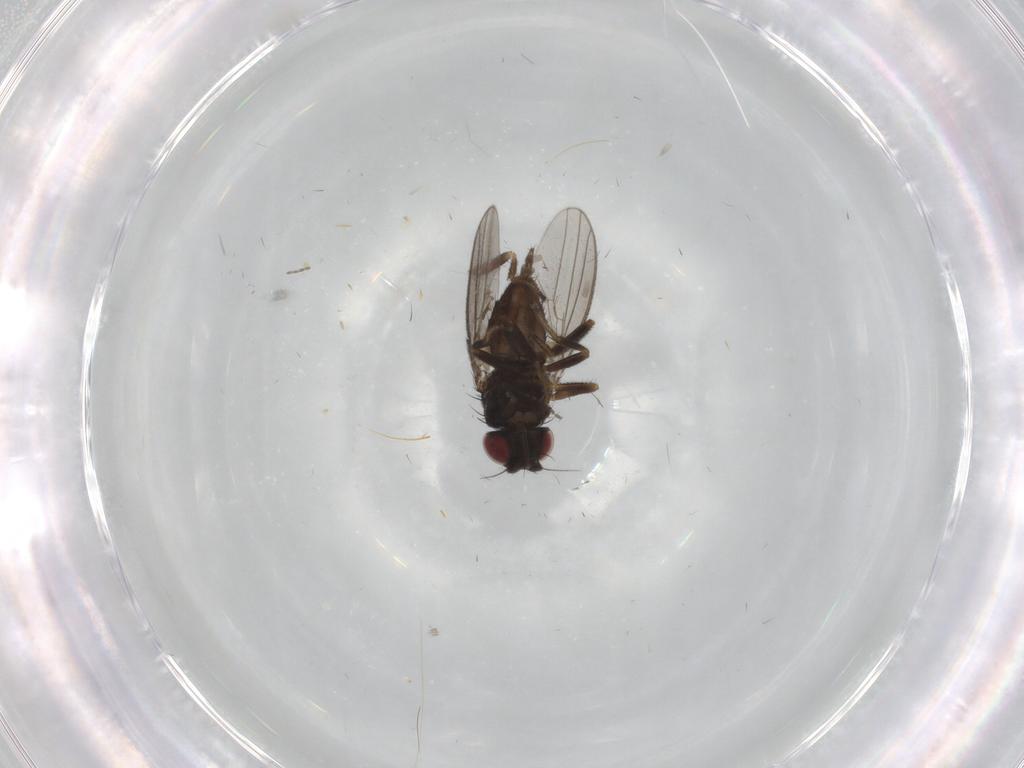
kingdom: Animalia
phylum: Arthropoda
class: Insecta
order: Diptera
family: Milichiidae
